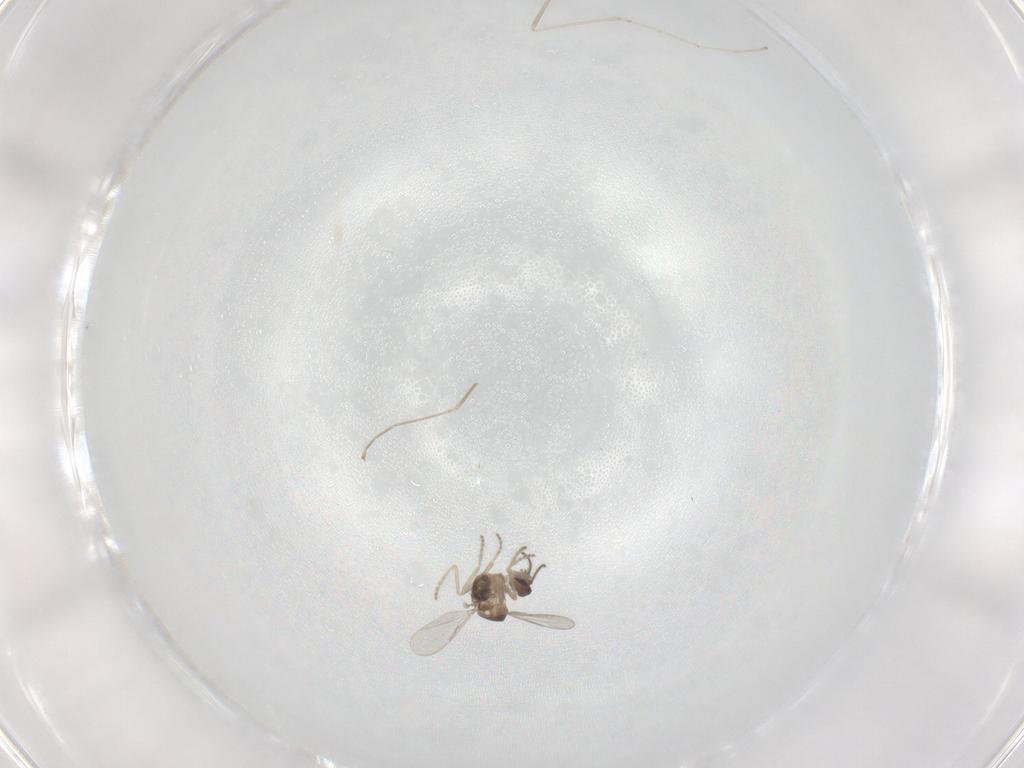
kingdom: Animalia
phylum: Arthropoda
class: Insecta
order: Diptera
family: Ceratopogonidae
